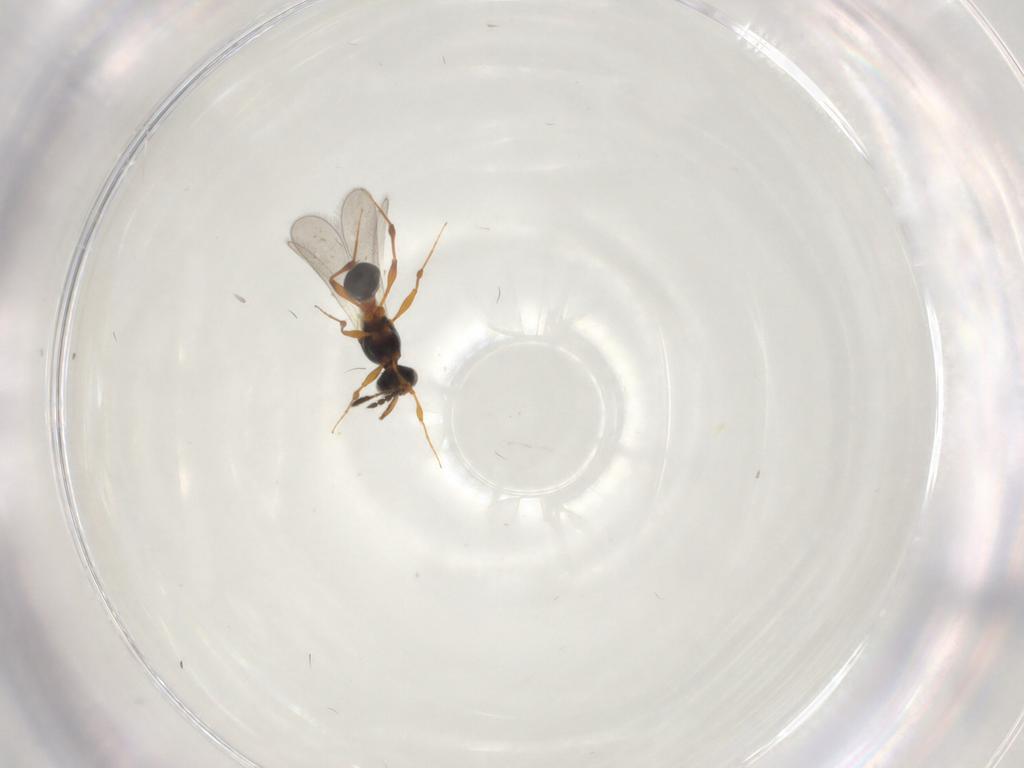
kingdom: Animalia
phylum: Arthropoda
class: Insecta
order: Hymenoptera
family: Platygastridae
